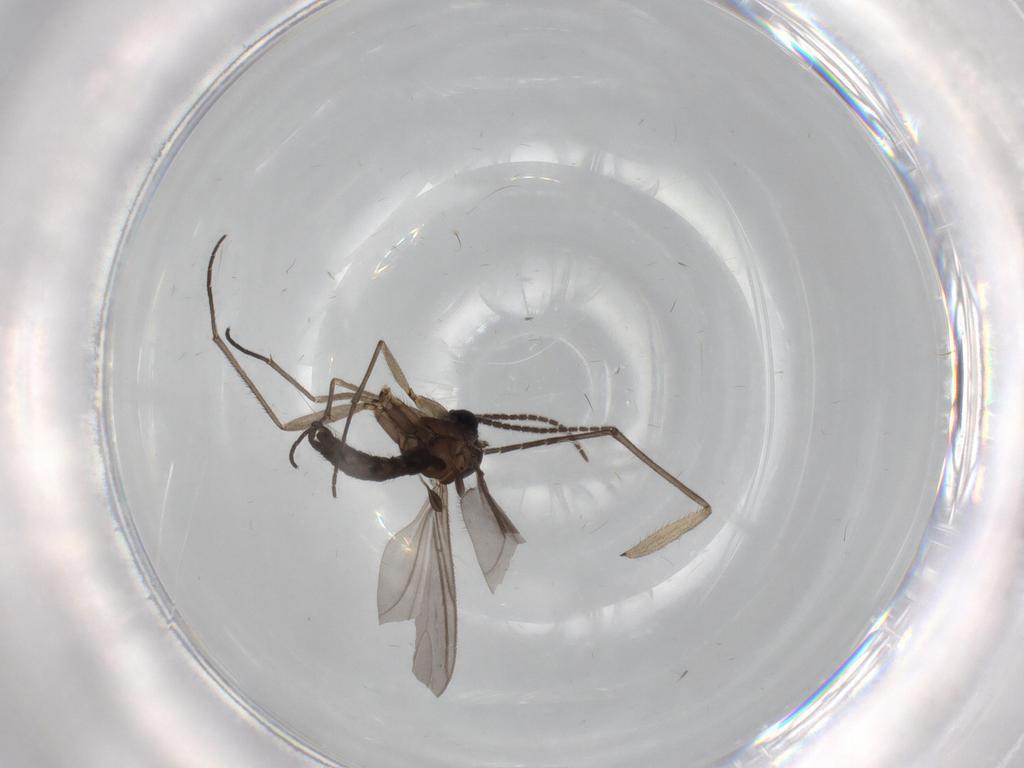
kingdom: Animalia
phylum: Arthropoda
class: Insecta
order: Diptera
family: Sciaridae
